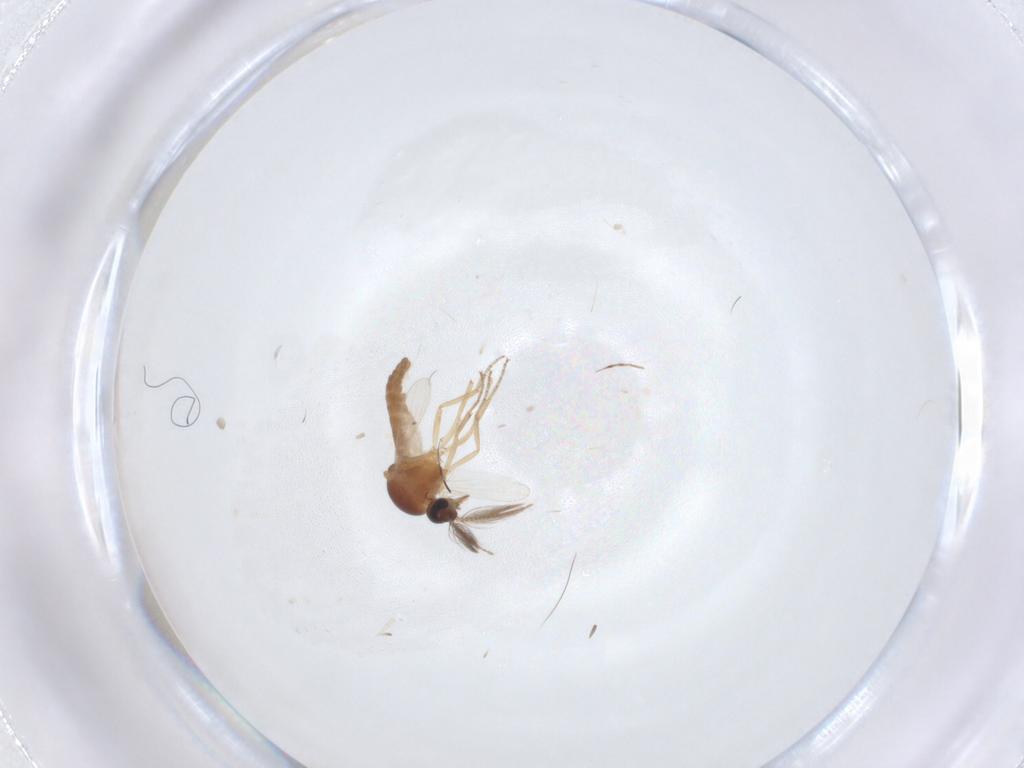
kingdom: Animalia
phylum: Arthropoda
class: Insecta
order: Diptera
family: Ceratopogonidae
